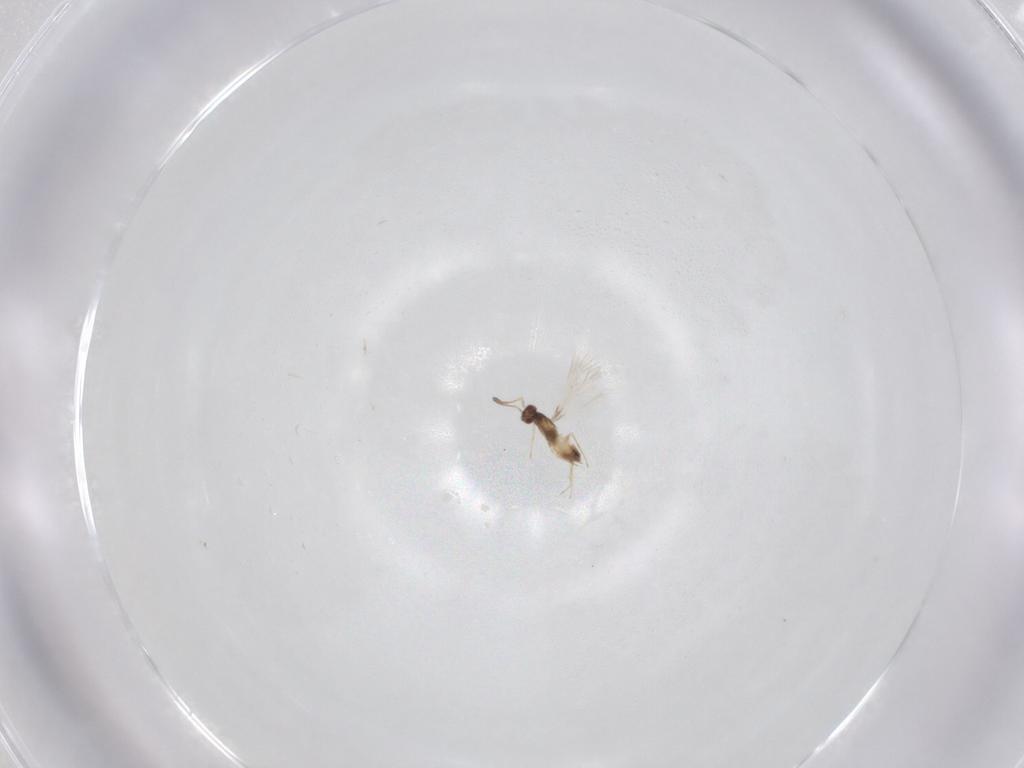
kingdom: Animalia
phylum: Arthropoda
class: Insecta
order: Hymenoptera
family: Mymaridae
